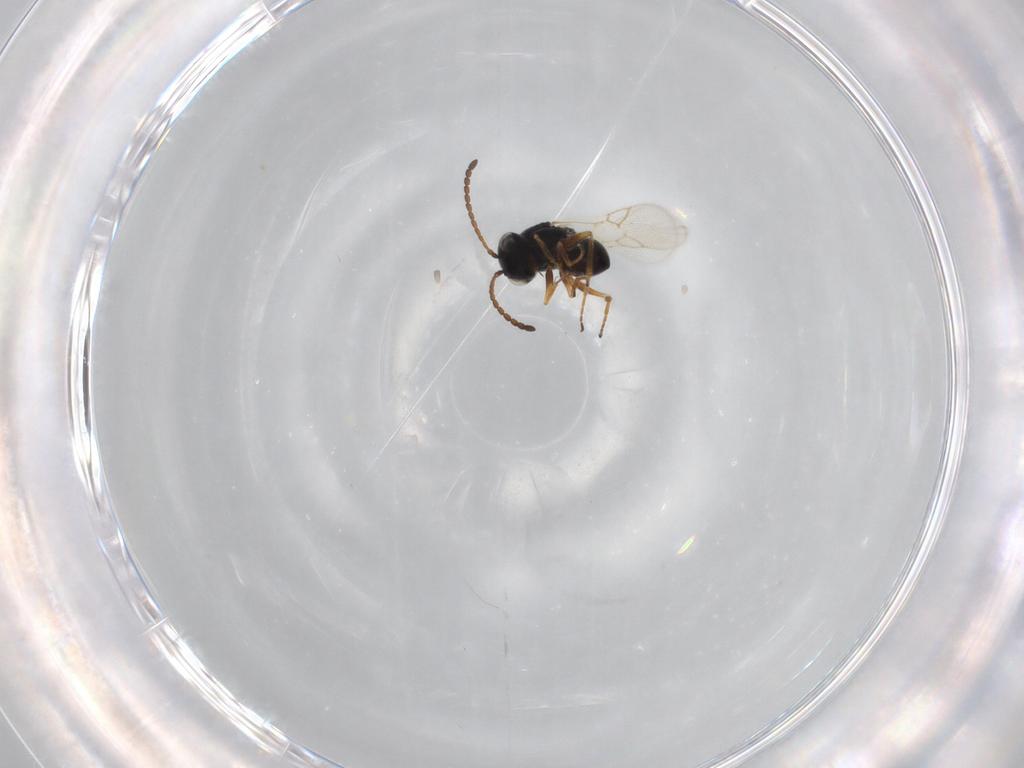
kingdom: Animalia
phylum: Arthropoda
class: Insecta
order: Hymenoptera
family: Figitidae
